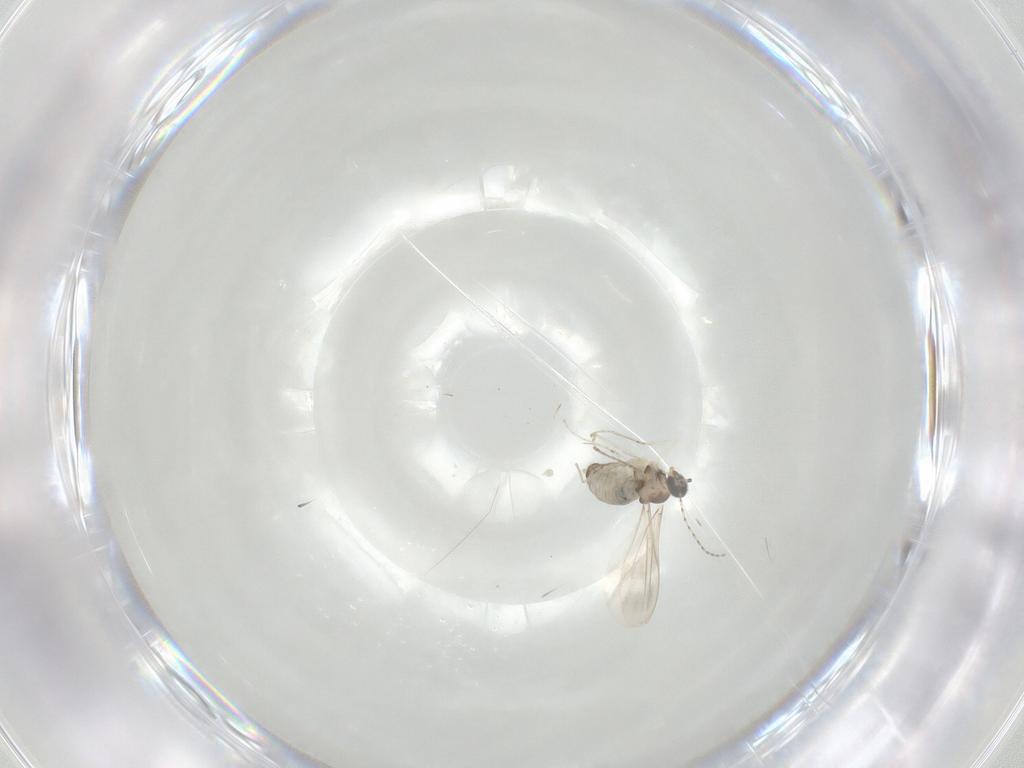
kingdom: Animalia
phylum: Arthropoda
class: Insecta
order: Diptera
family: Cecidomyiidae
